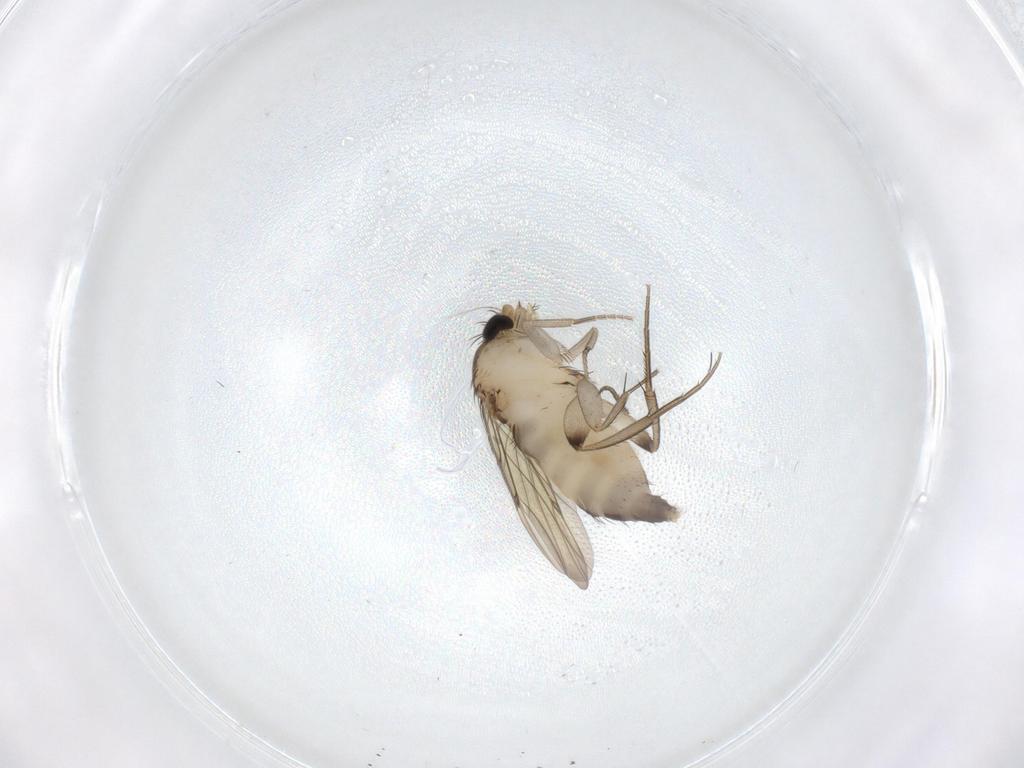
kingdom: Animalia
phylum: Arthropoda
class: Insecta
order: Diptera
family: Phoridae
